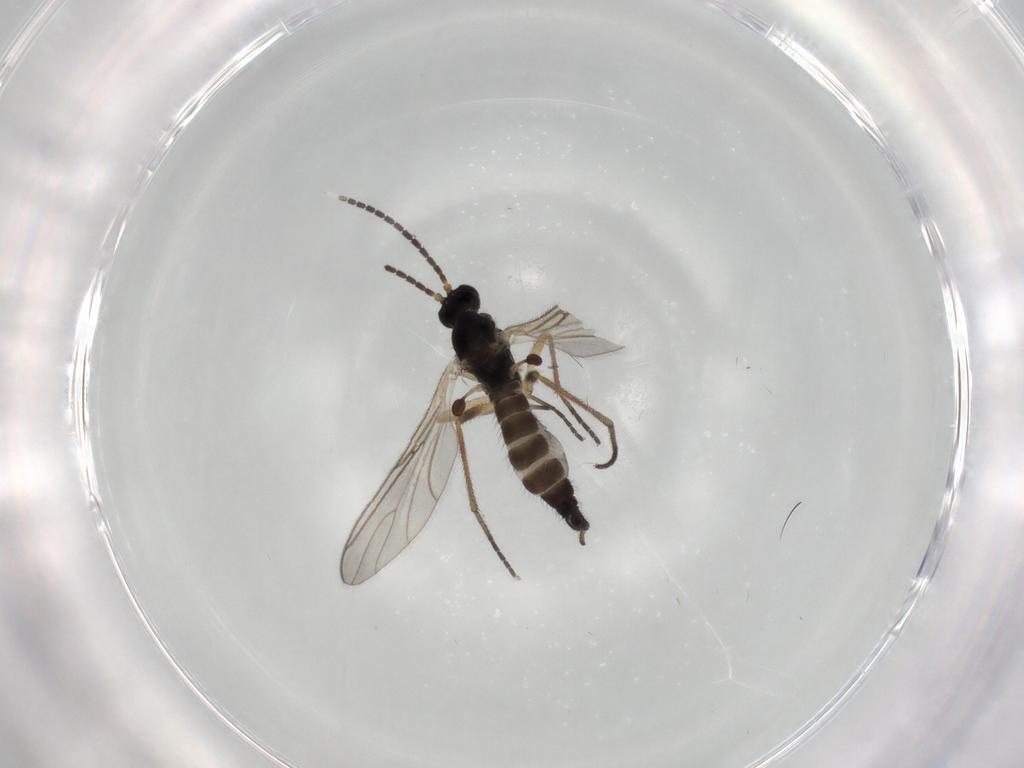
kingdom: Animalia
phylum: Arthropoda
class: Insecta
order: Diptera
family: Sciaridae
